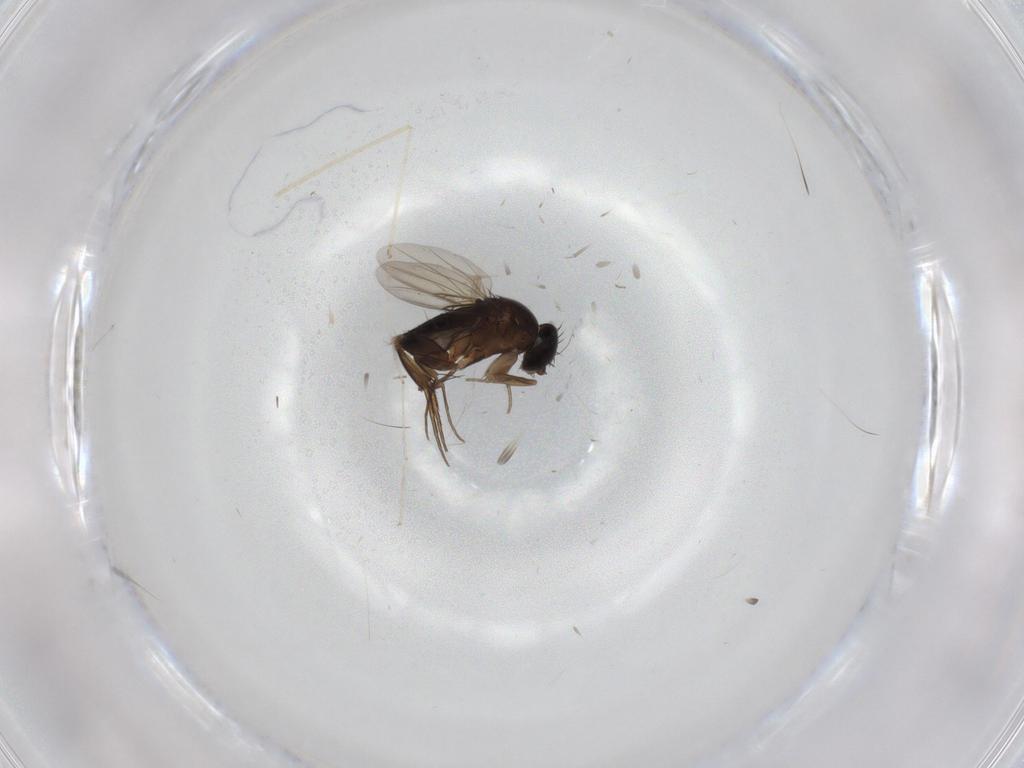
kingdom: Animalia
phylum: Arthropoda
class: Insecta
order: Diptera
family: Phoridae
